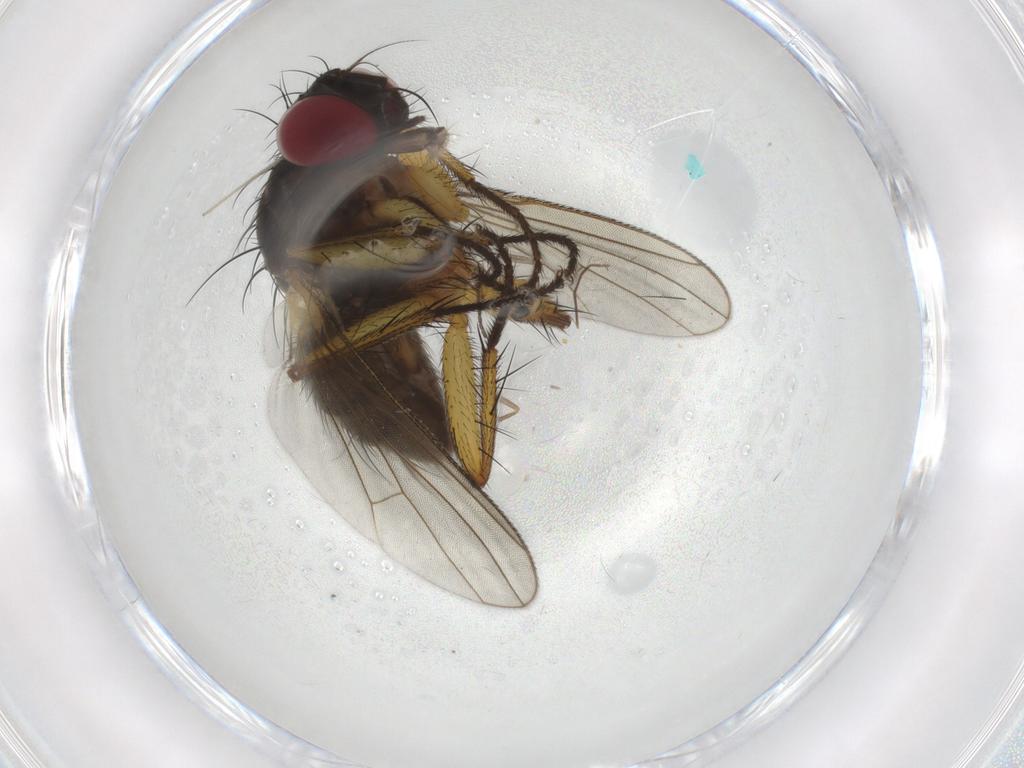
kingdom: Animalia
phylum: Arthropoda
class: Insecta
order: Diptera
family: Muscidae
